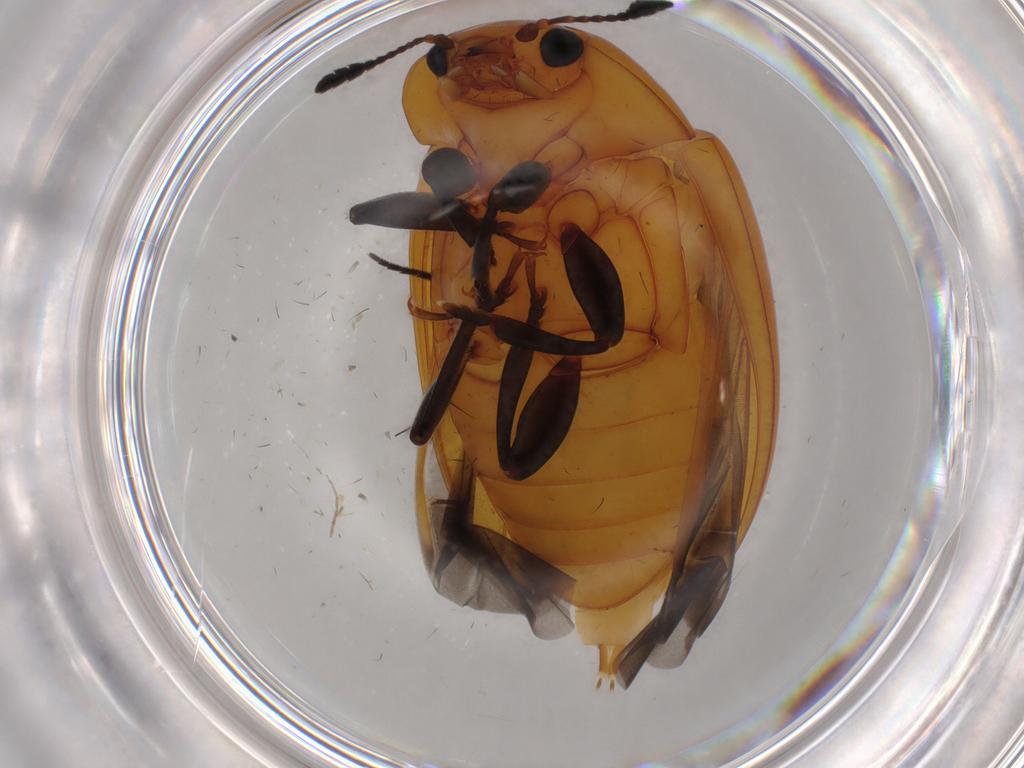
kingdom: Animalia
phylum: Arthropoda
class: Insecta
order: Coleoptera
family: Erotylidae
